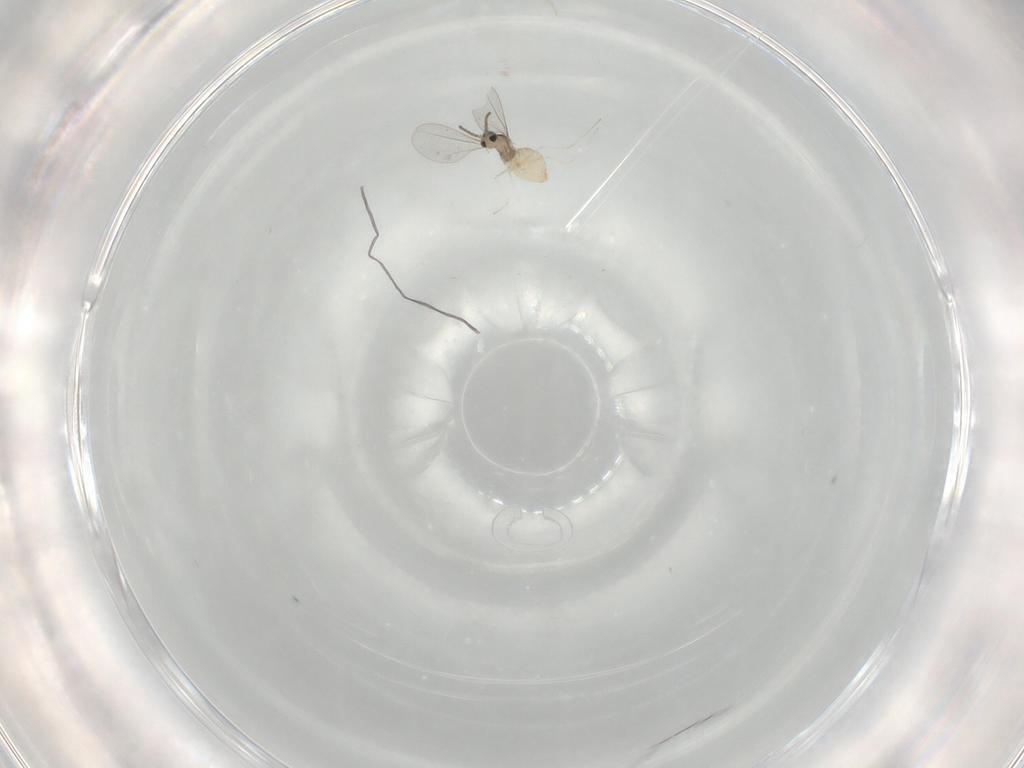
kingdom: Animalia
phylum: Arthropoda
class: Insecta
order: Diptera
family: Cecidomyiidae
